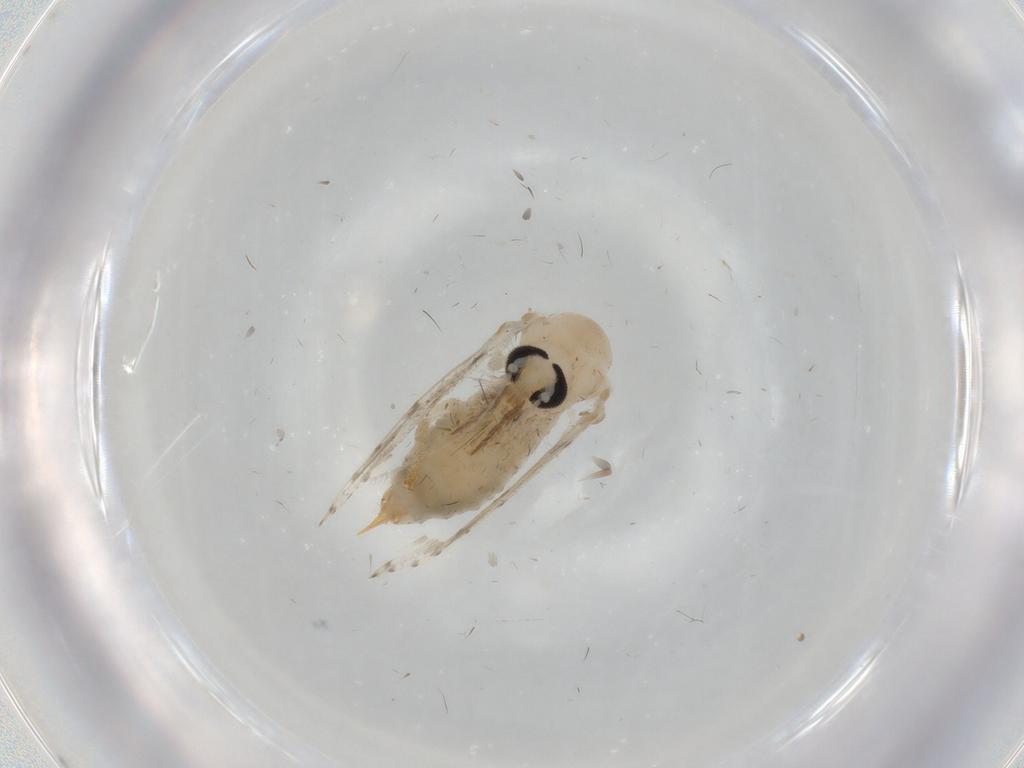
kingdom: Animalia
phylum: Arthropoda
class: Insecta
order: Diptera
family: Psychodidae
